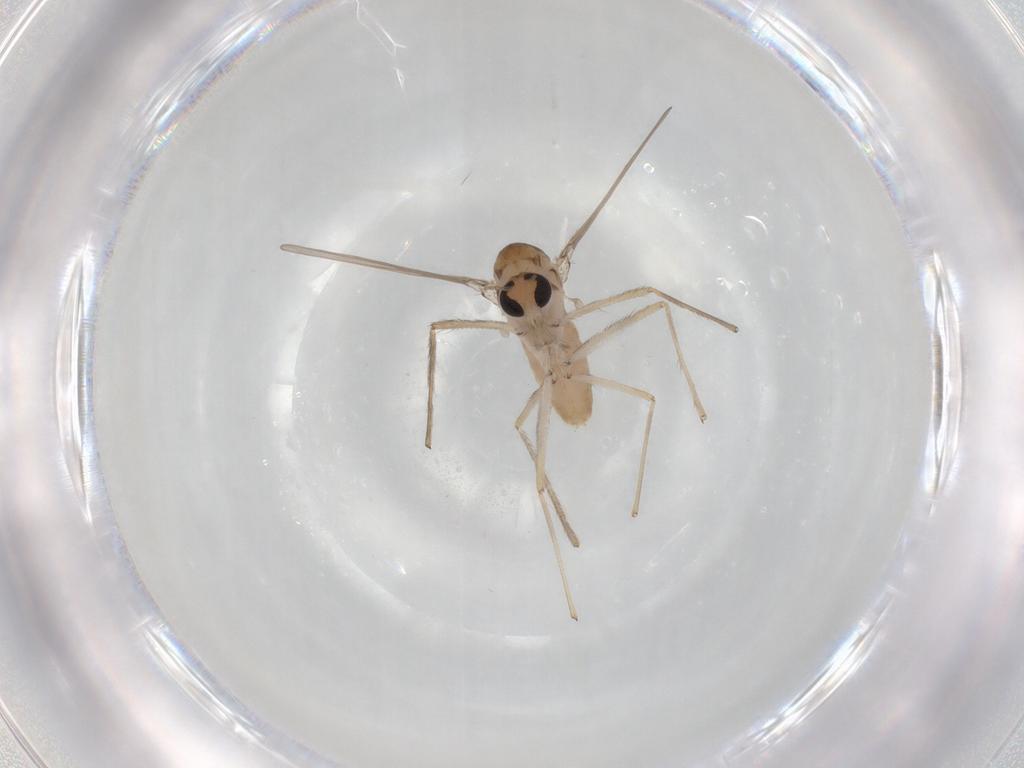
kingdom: Animalia
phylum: Arthropoda
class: Insecta
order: Diptera
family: Chironomidae
